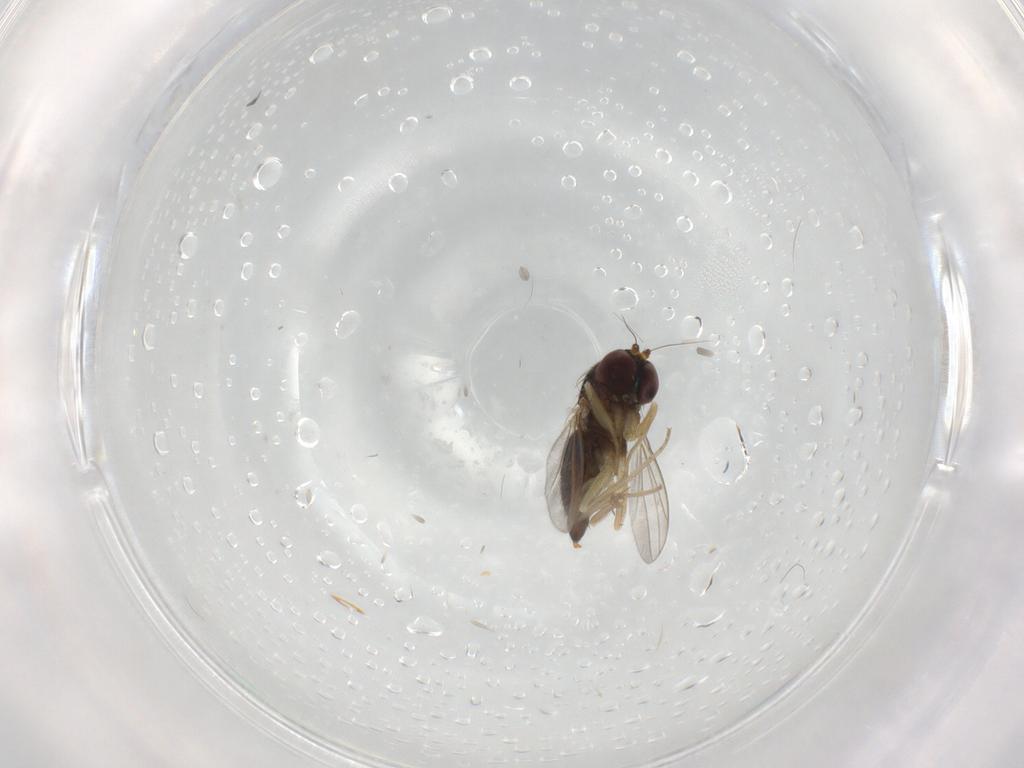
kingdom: Animalia
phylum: Arthropoda
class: Insecta
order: Diptera
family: Dolichopodidae
